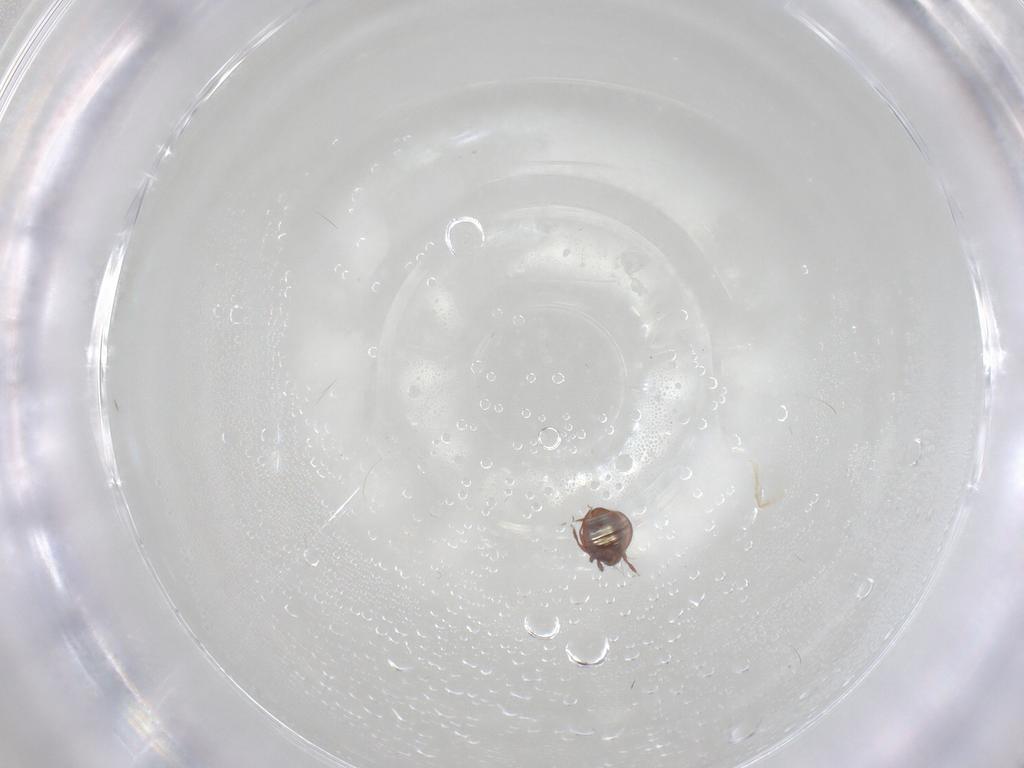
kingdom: Animalia
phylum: Arthropoda
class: Arachnida
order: Sarcoptiformes
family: Oribatulidae
